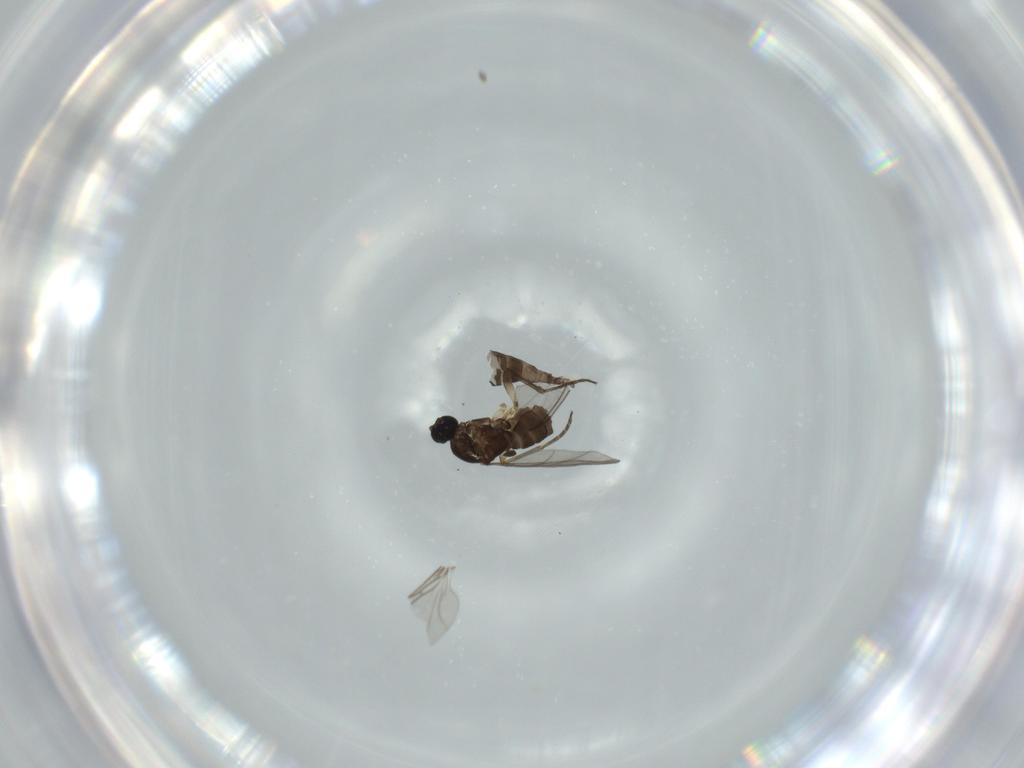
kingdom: Animalia
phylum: Arthropoda
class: Insecta
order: Diptera
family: Sciaridae
